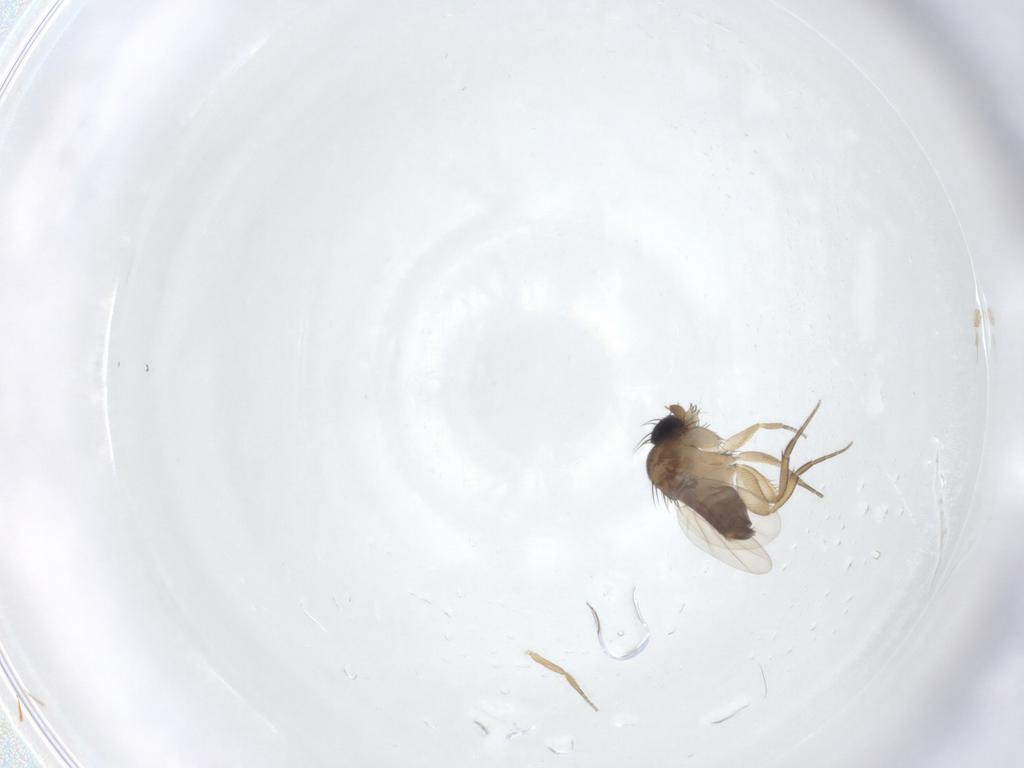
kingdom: Animalia
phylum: Arthropoda
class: Insecta
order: Diptera
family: Phoridae
